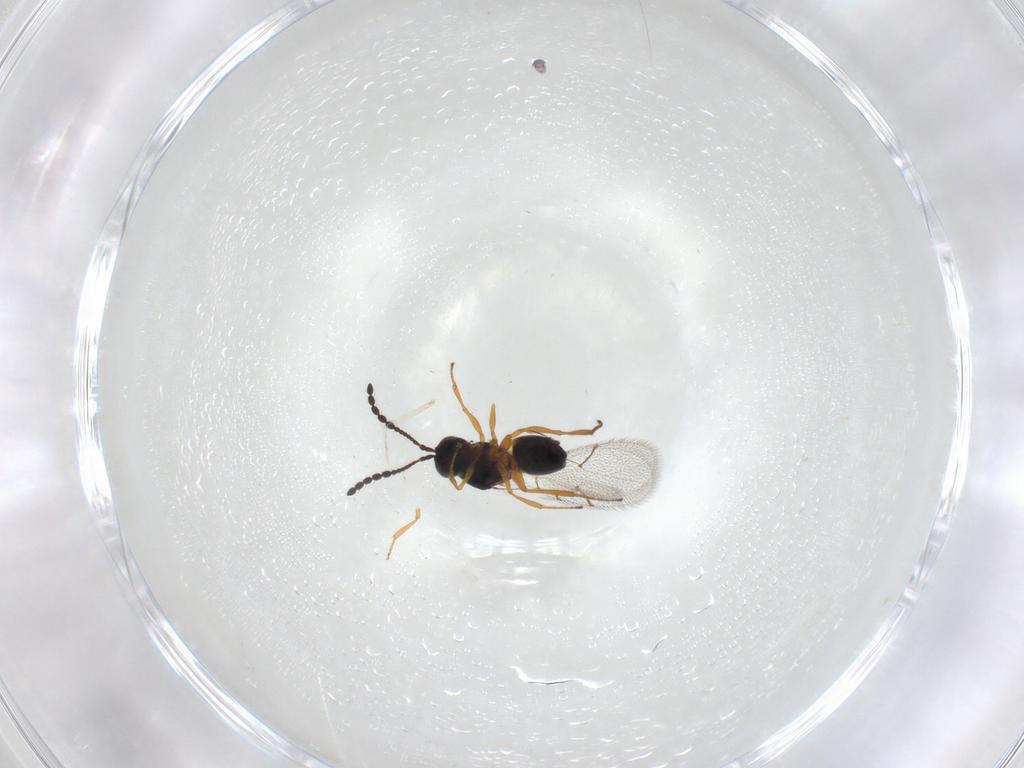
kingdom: Animalia
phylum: Arthropoda
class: Insecta
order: Hymenoptera
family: Figitidae
